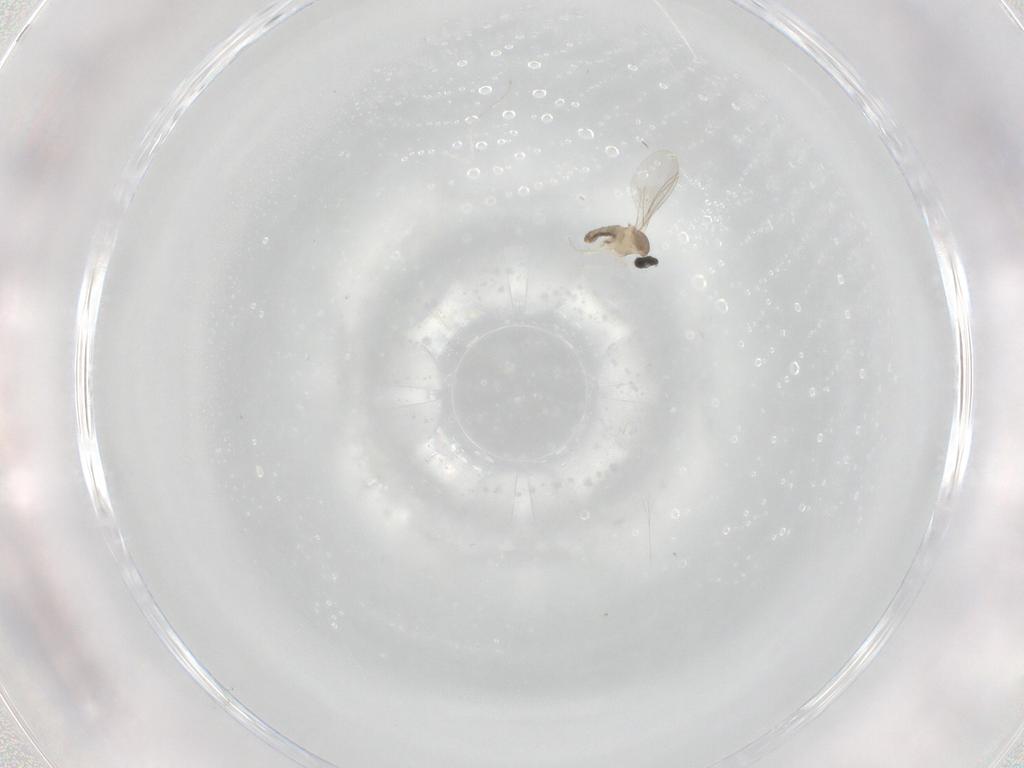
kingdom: Animalia
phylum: Arthropoda
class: Insecta
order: Diptera
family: Cecidomyiidae
